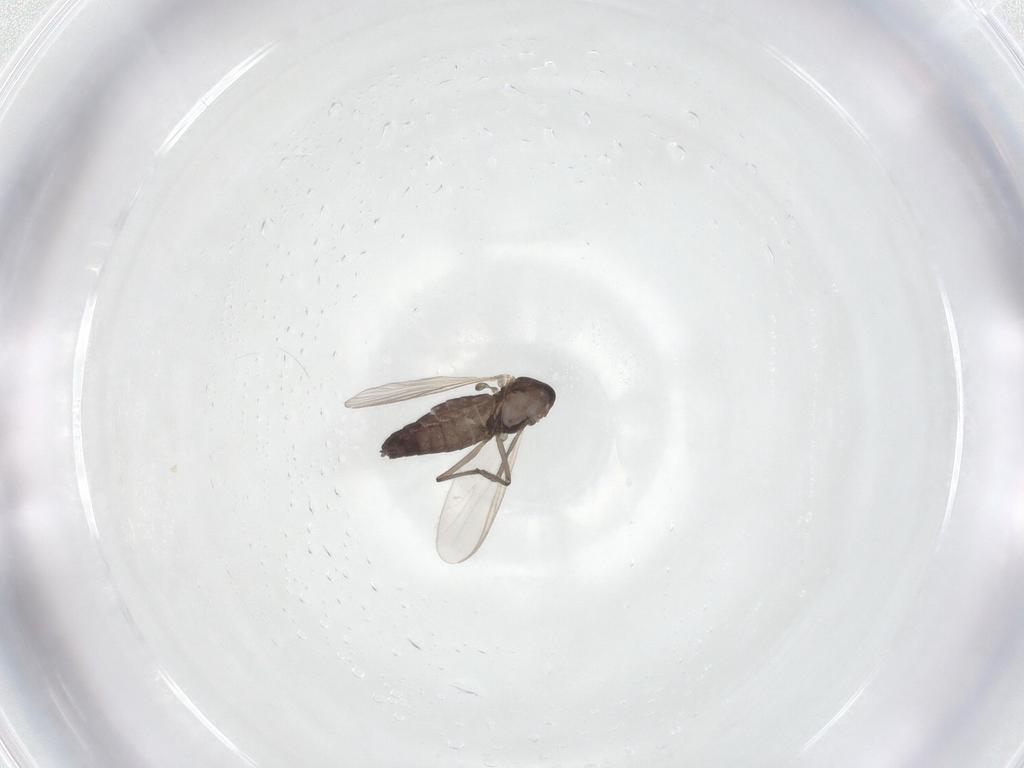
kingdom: Animalia
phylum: Arthropoda
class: Insecta
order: Diptera
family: Chironomidae
